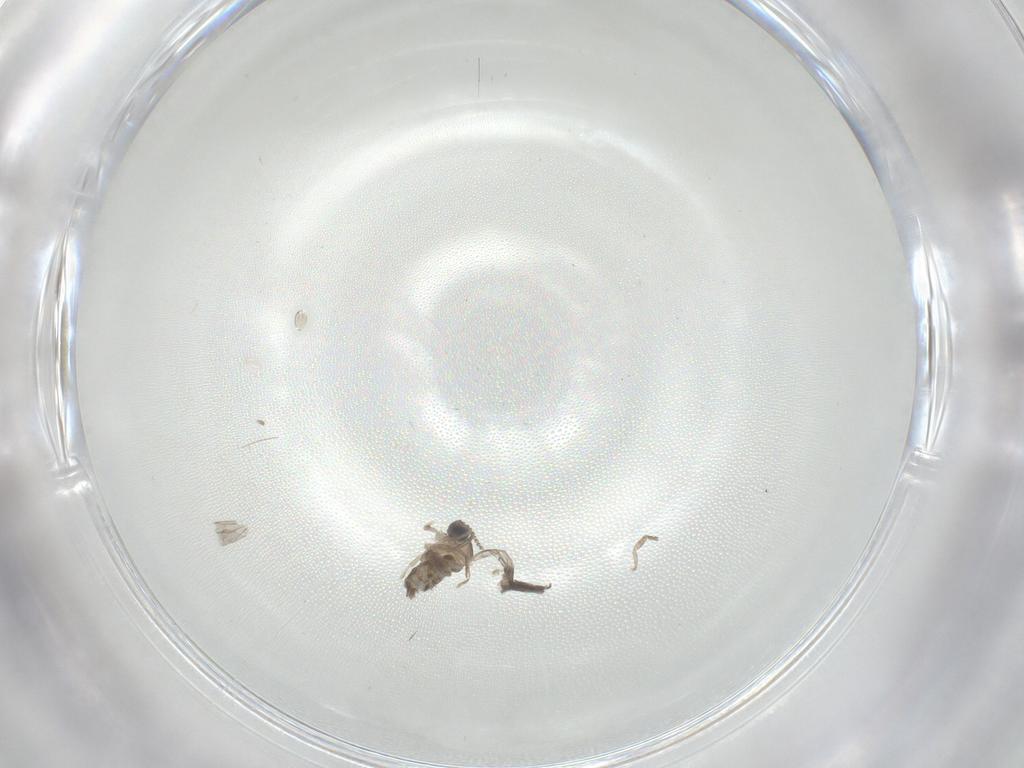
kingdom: Animalia
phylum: Arthropoda
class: Insecta
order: Diptera
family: Cecidomyiidae
